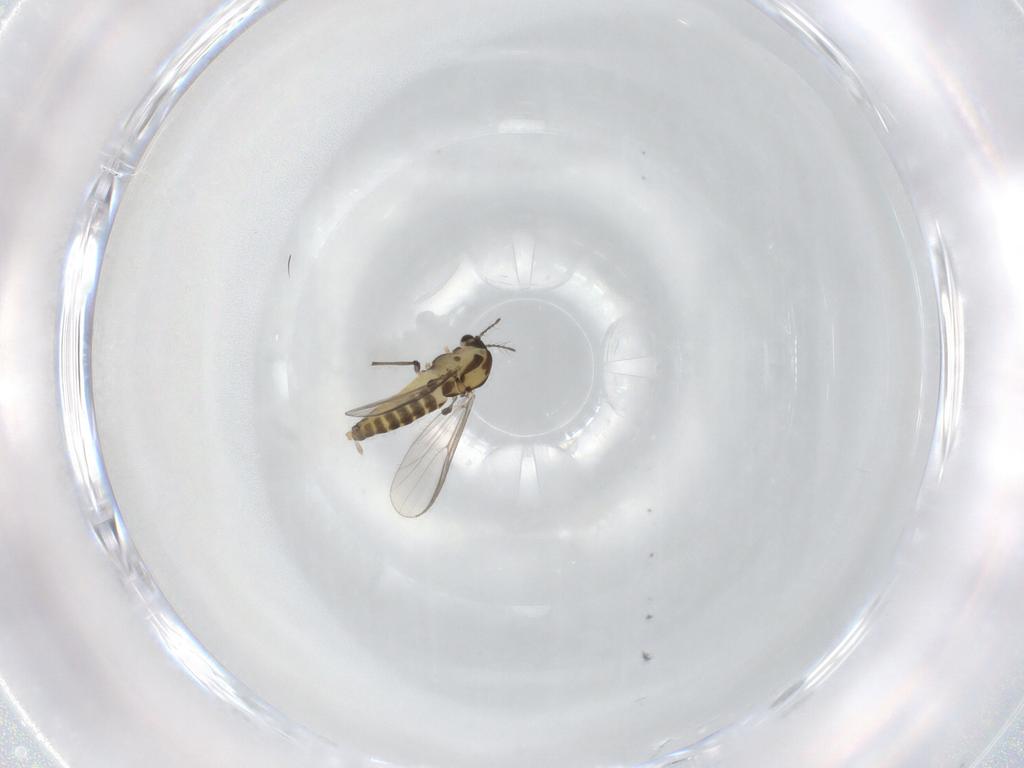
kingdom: Animalia
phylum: Arthropoda
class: Insecta
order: Diptera
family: Chironomidae
